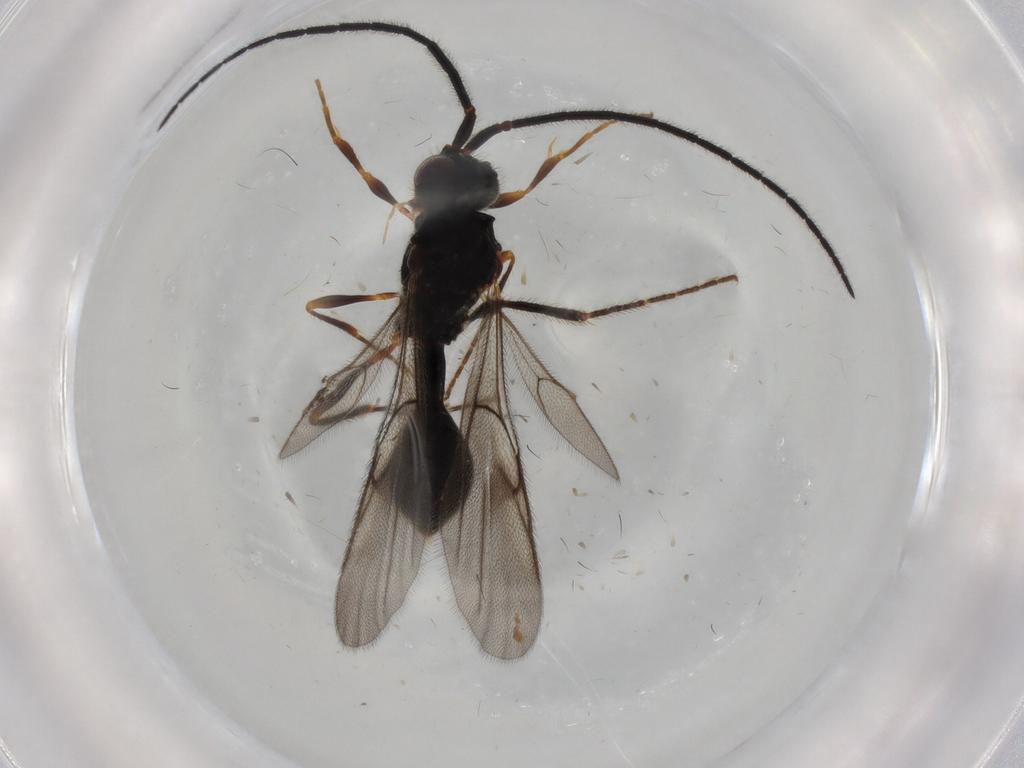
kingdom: Animalia
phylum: Arthropoda
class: Insecta
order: Hymenoptera
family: Diapriidae
